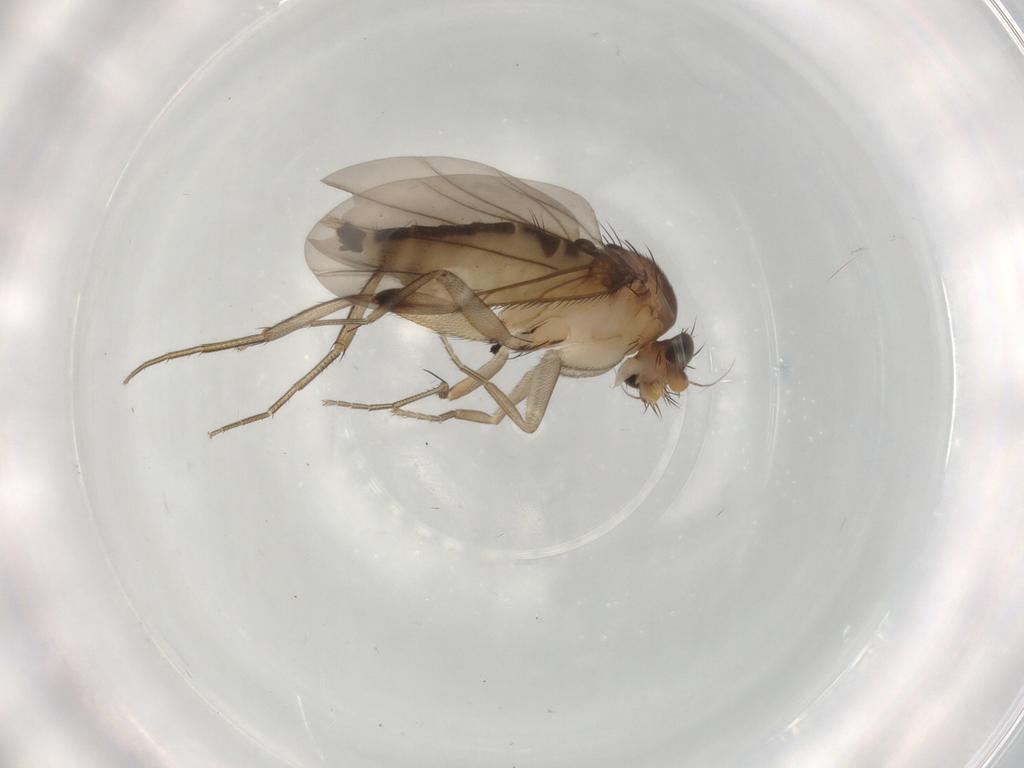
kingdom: Animalia
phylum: Arthropoda
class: Insecta
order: Diptera
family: Phoridae
